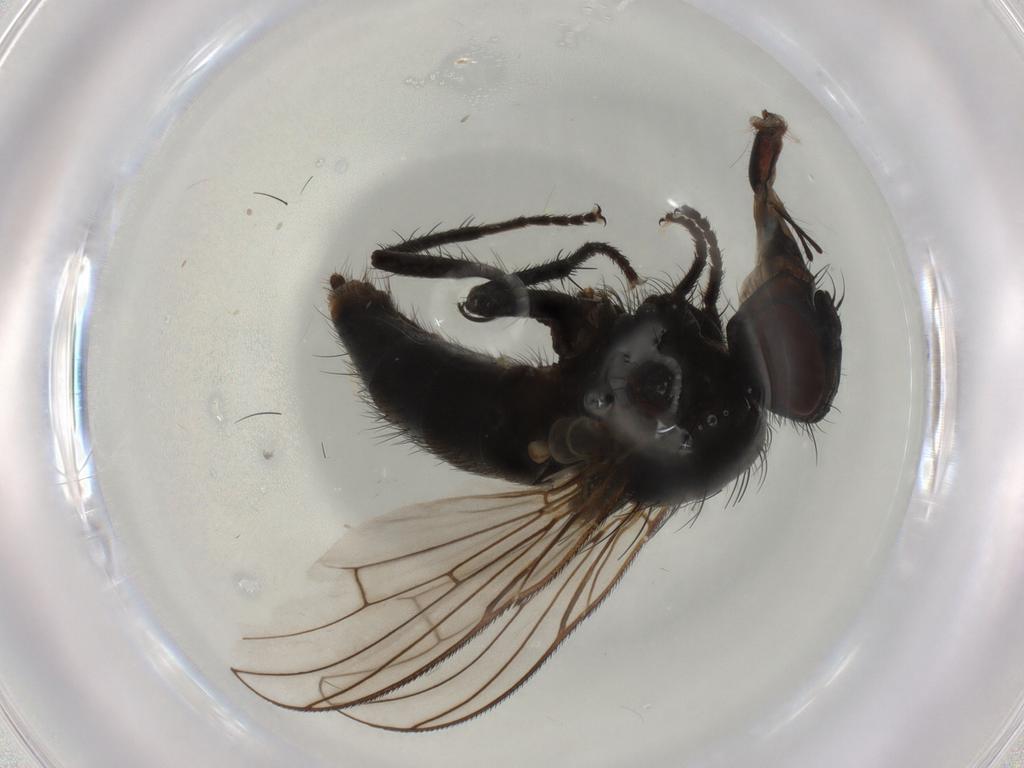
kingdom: Animalia
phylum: Arthropoda
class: Insecta
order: Diptera
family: Muscidae
